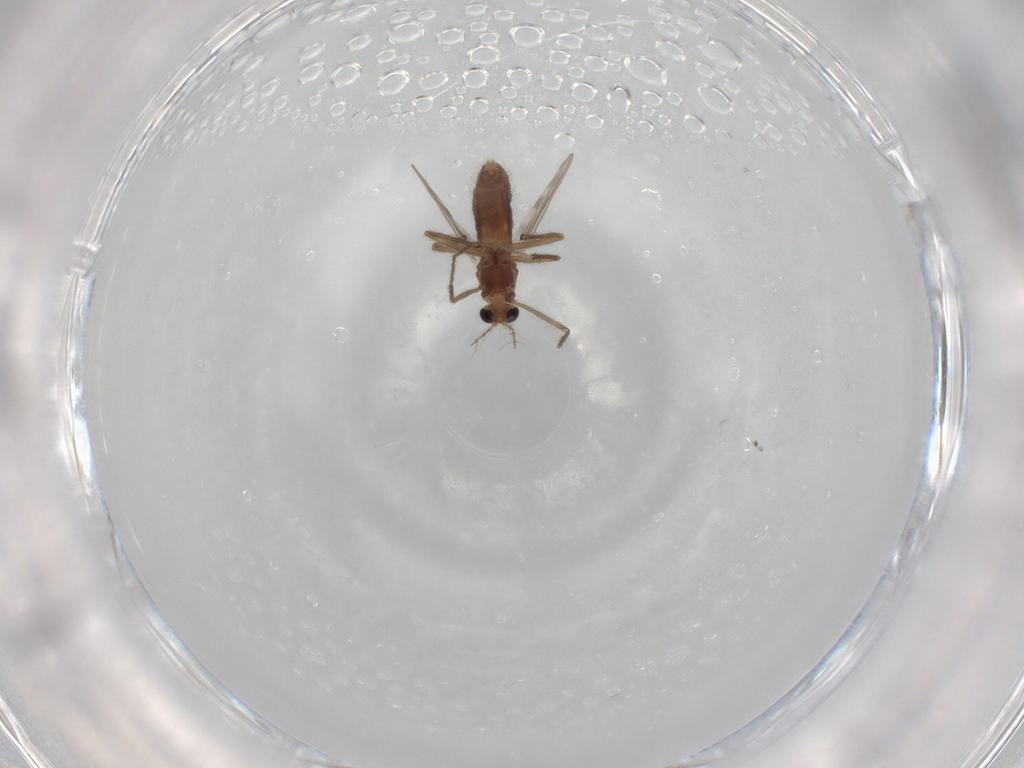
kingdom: Animalia
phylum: Arthropoda
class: Insecta
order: Diptera
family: Chironomidae
